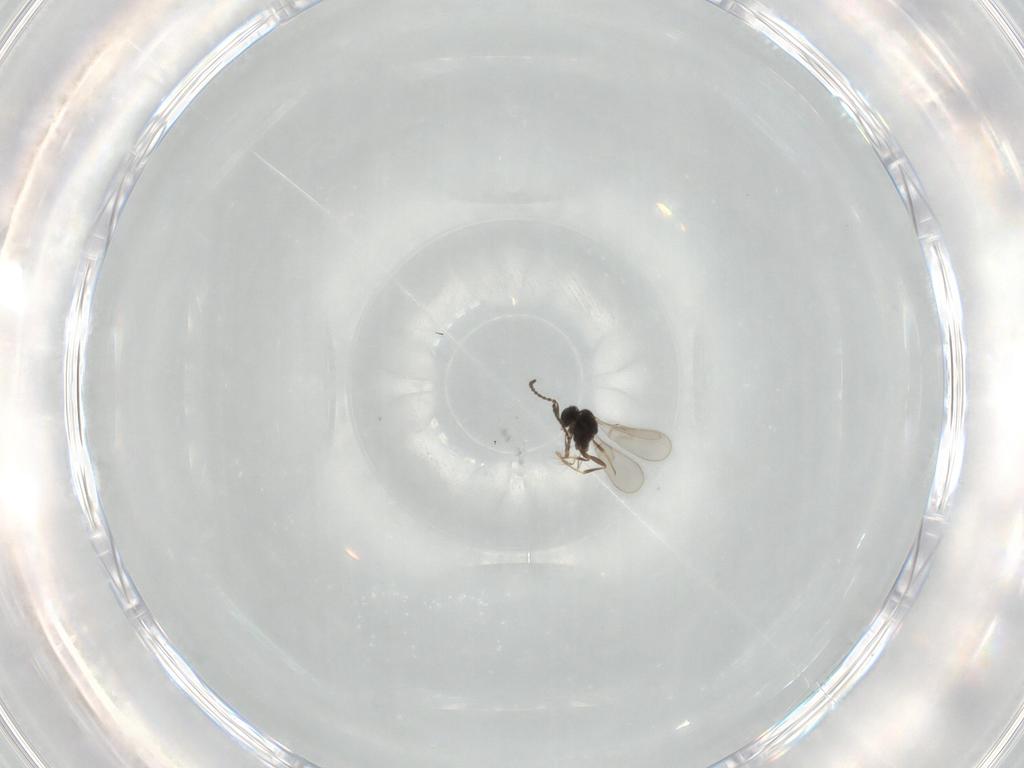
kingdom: Animalia
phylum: Arthropoda
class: Insecta
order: Hymenoptera
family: Scelionidae
